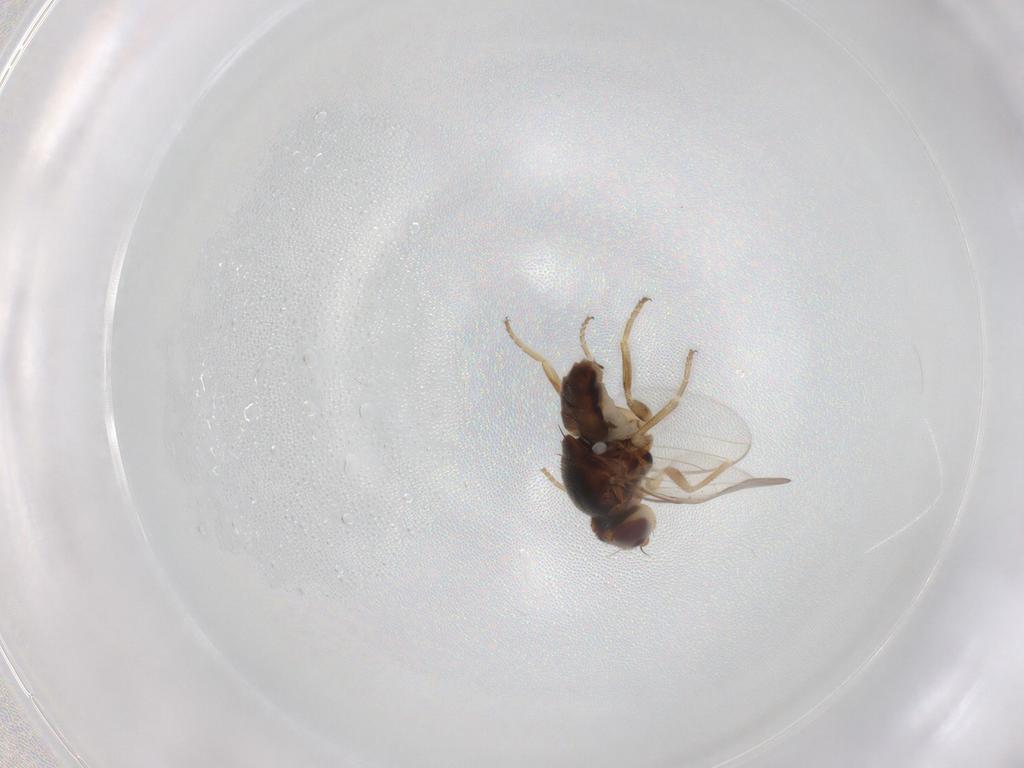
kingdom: Animalia
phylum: Arthropoda
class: Insecta
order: Diptera
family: Chloropidae
